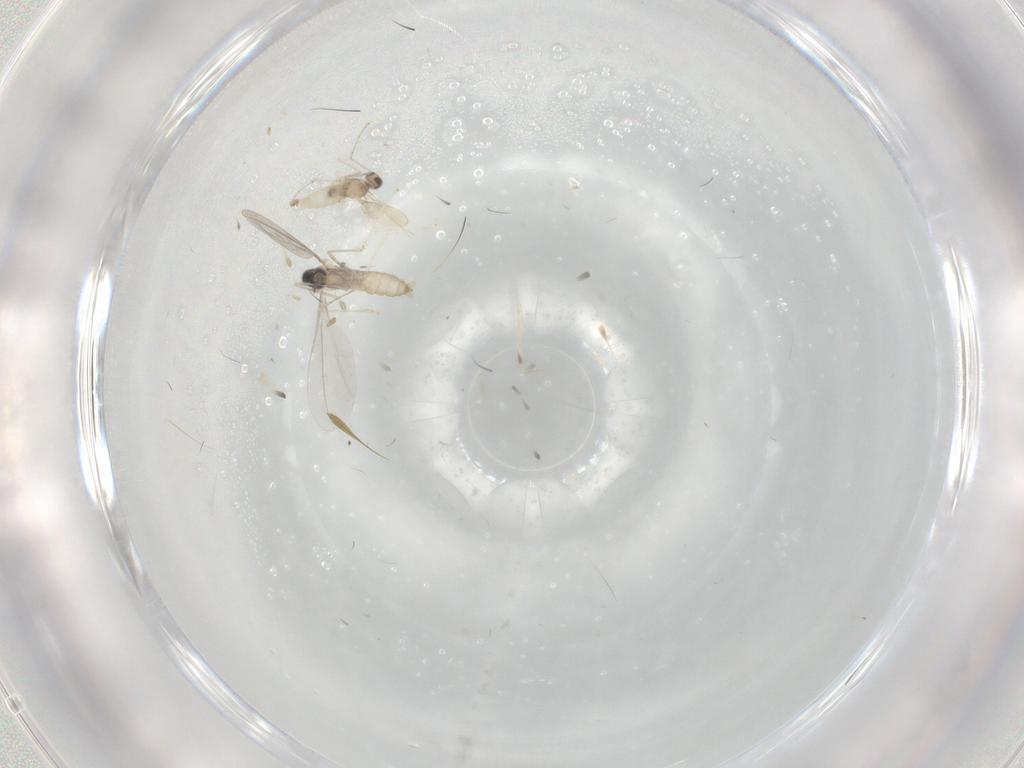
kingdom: Animalia
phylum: Arthropoda
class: Insecta
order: Diptera
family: Cecidomyiidae
